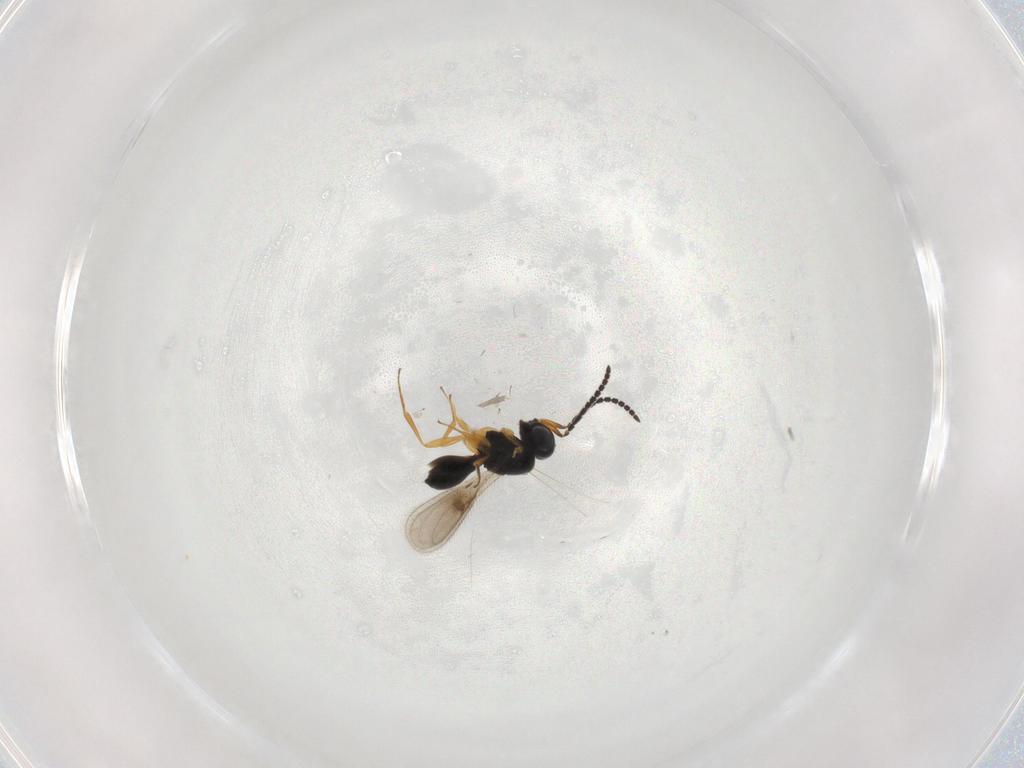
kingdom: Animalia
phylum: Arthropoda
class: Insecta
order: Hymenoptera
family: Scelionidae
